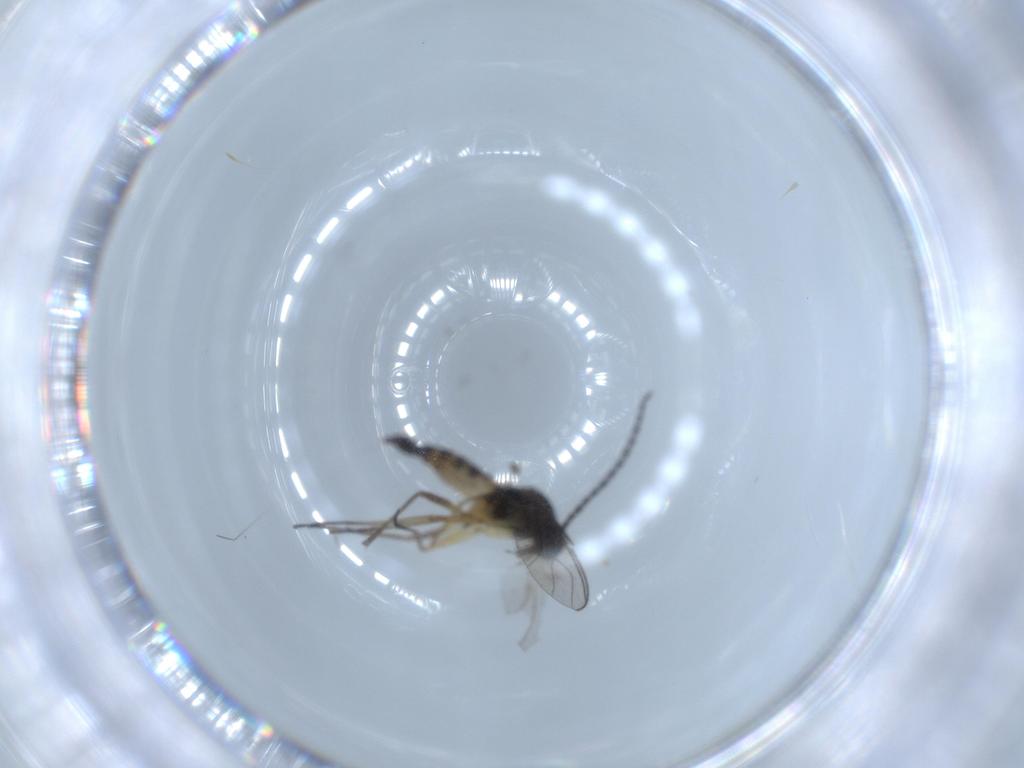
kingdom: Animalia
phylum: Arthropoda
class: Insecta
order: Diptera
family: Sciaridae
